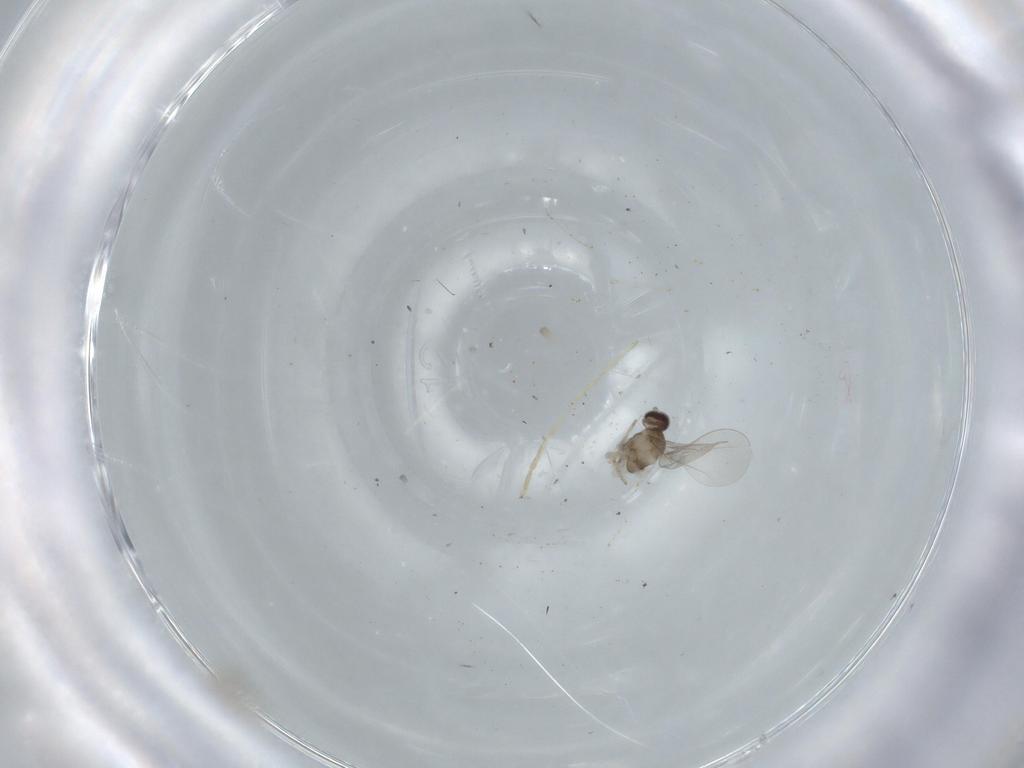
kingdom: Animalia
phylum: Arthropoda
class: Insecta
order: Diptera
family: Cecidomyiidae
